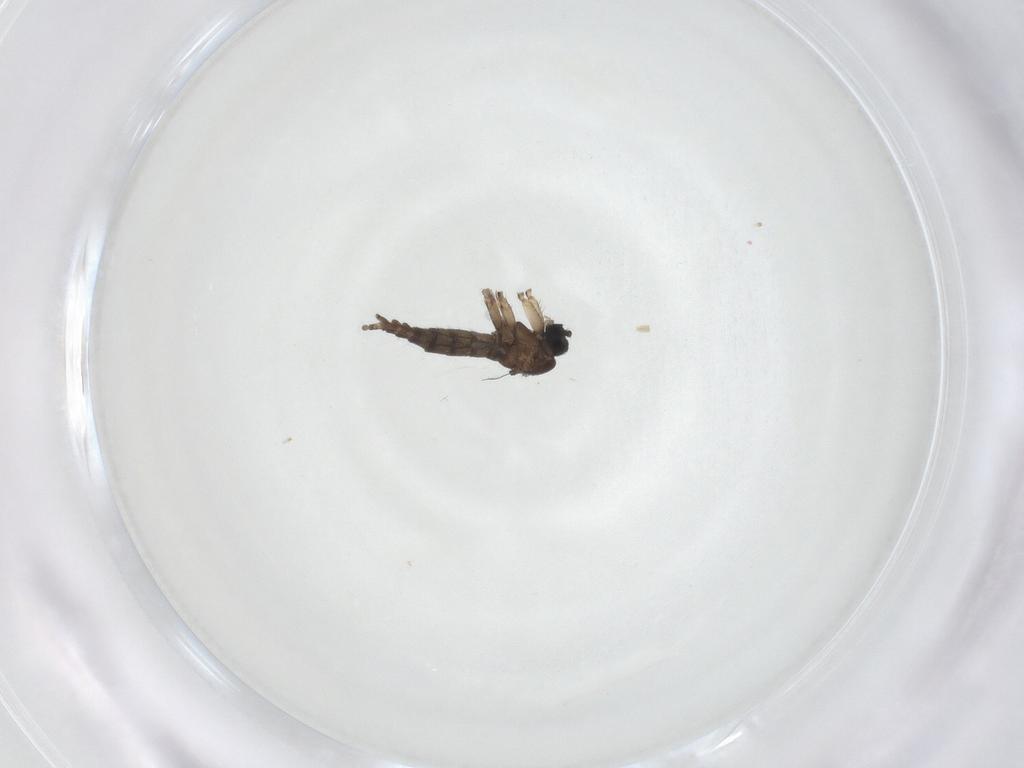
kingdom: Animalia
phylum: Arthropoda
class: Insecta
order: Diptera
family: Sciaridae
